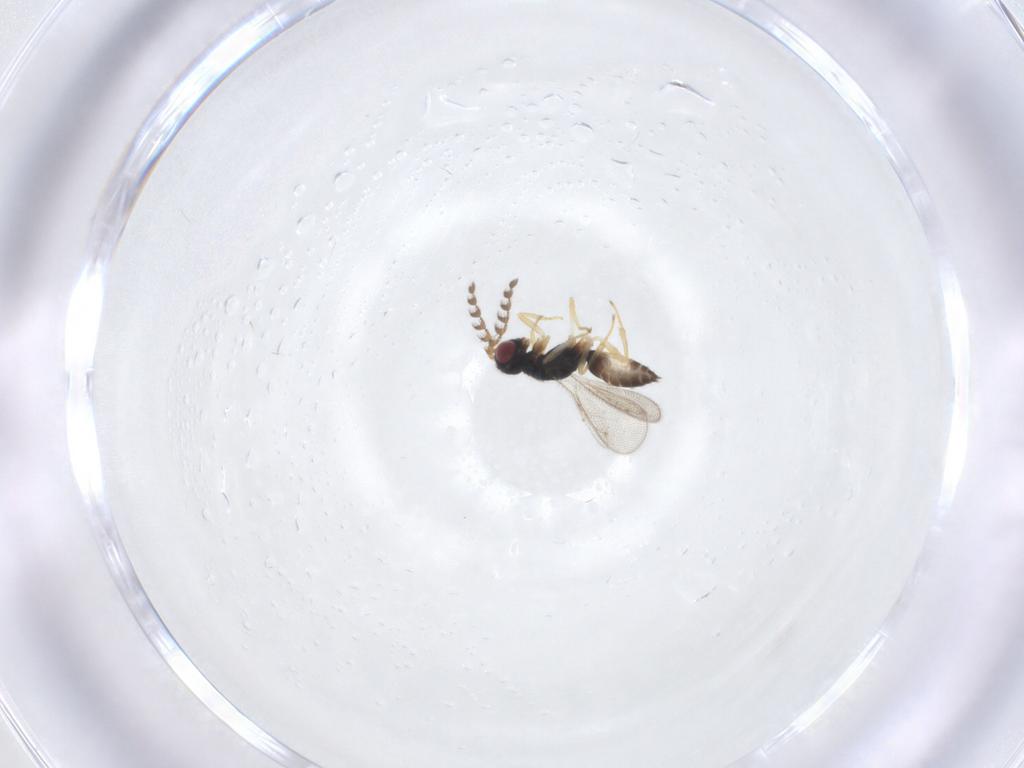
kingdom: Animalia
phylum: Arthropoda
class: Insecta
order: Hymenoptera
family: Eulophidae
